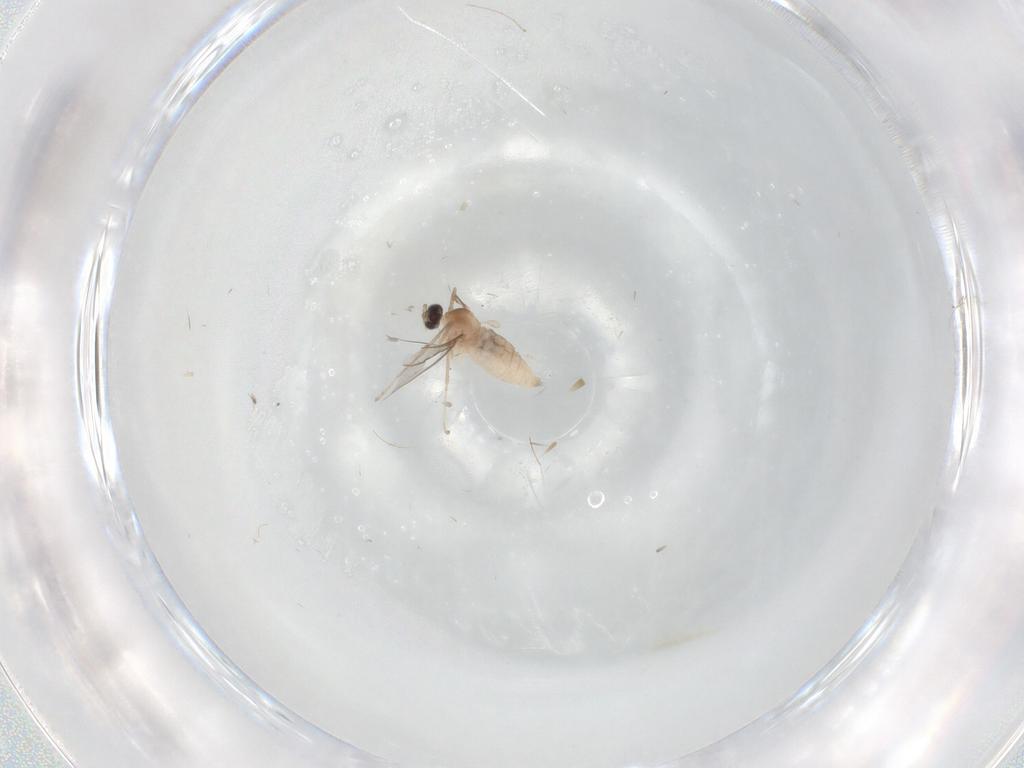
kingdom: Animalia
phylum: Arthropoda
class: Insecta
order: Diptera
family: Cecidomyiidae
